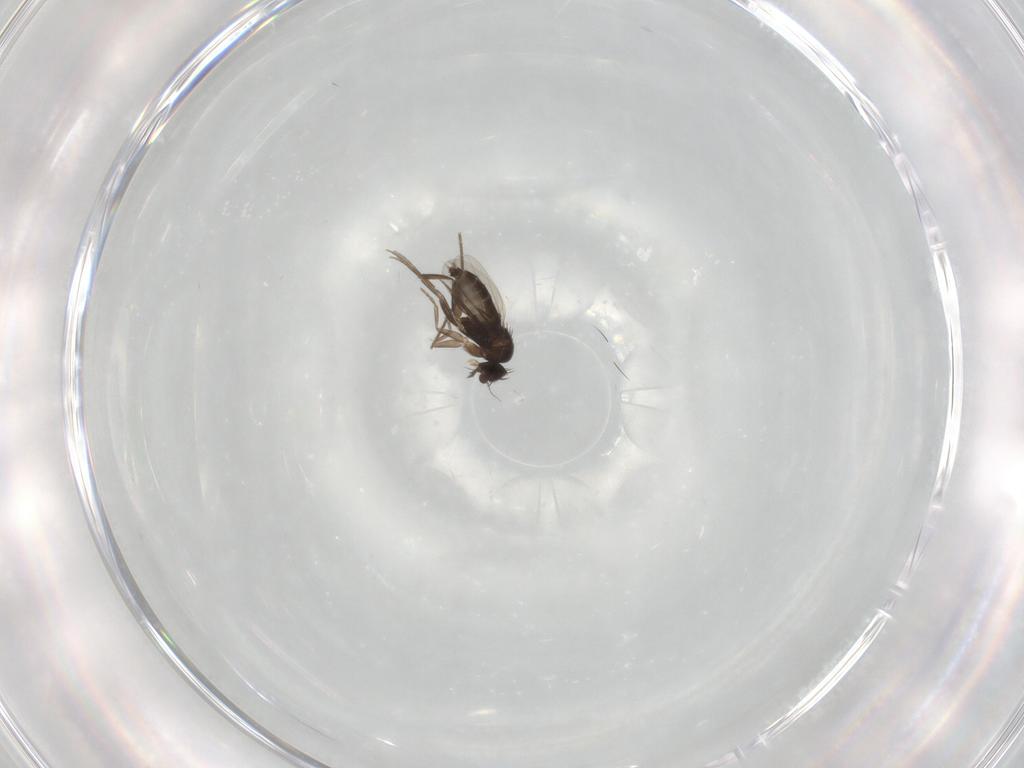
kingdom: Animalia
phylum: Arthropoda
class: Insecta
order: Diptera
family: Phoridae
